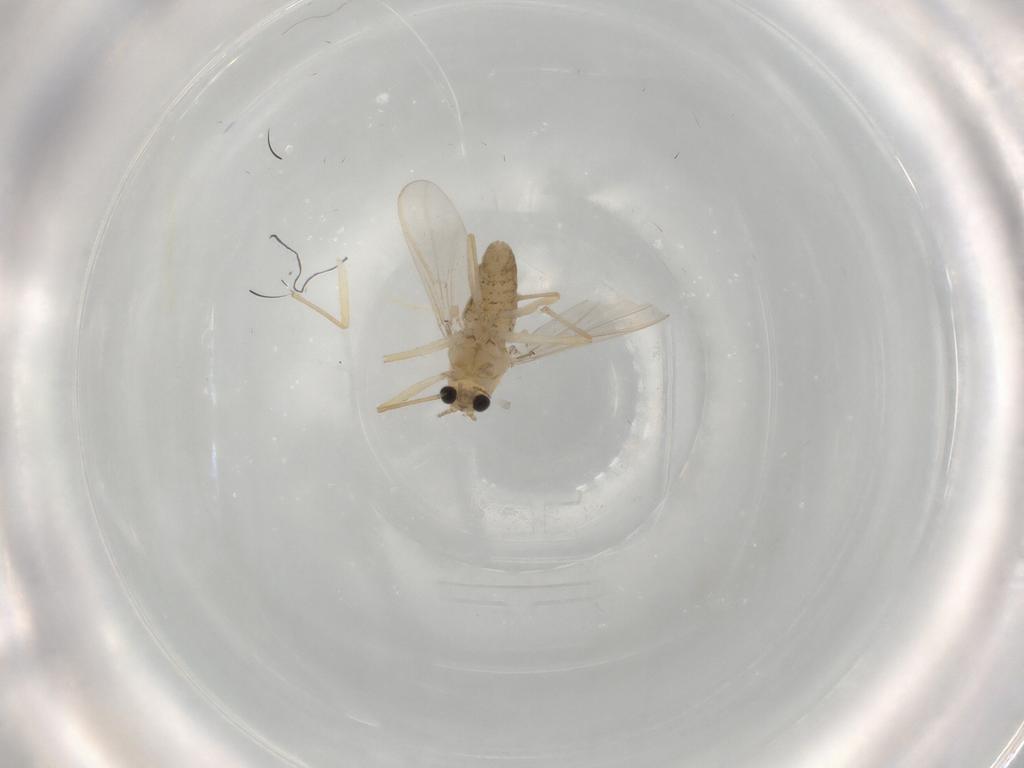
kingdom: Animalia
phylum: Arthropoda
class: Insecta
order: Diptera
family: Chironomidae
